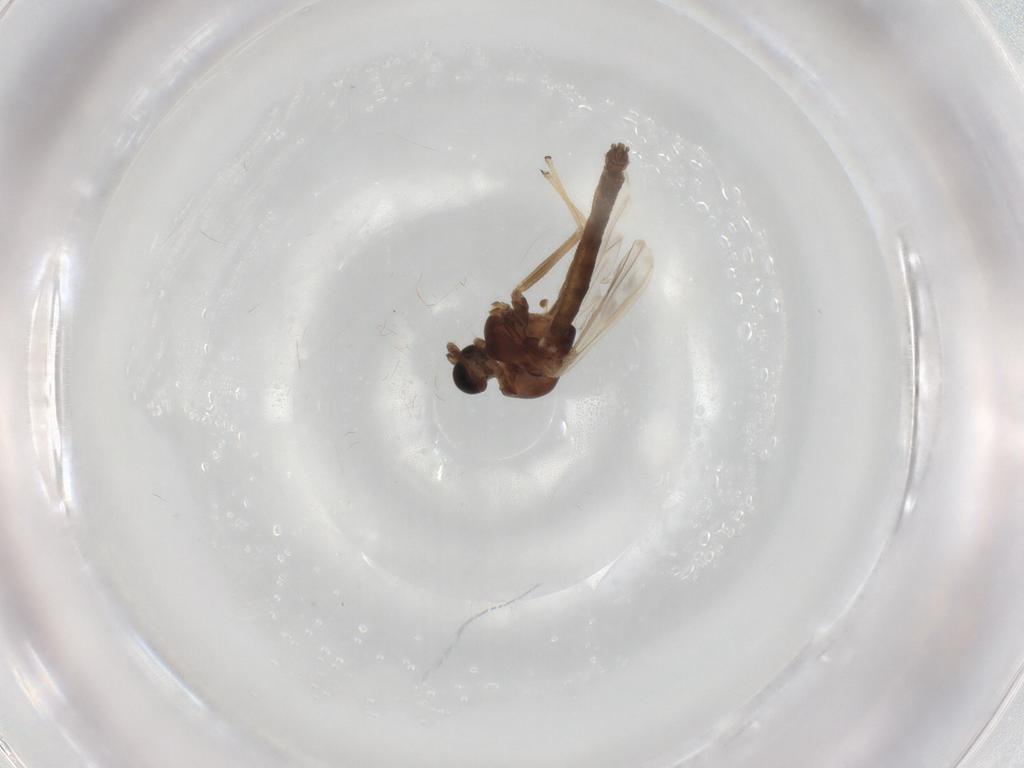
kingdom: Animalia
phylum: Arthropoda
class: Insecta
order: Diptera
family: Chironomidae
